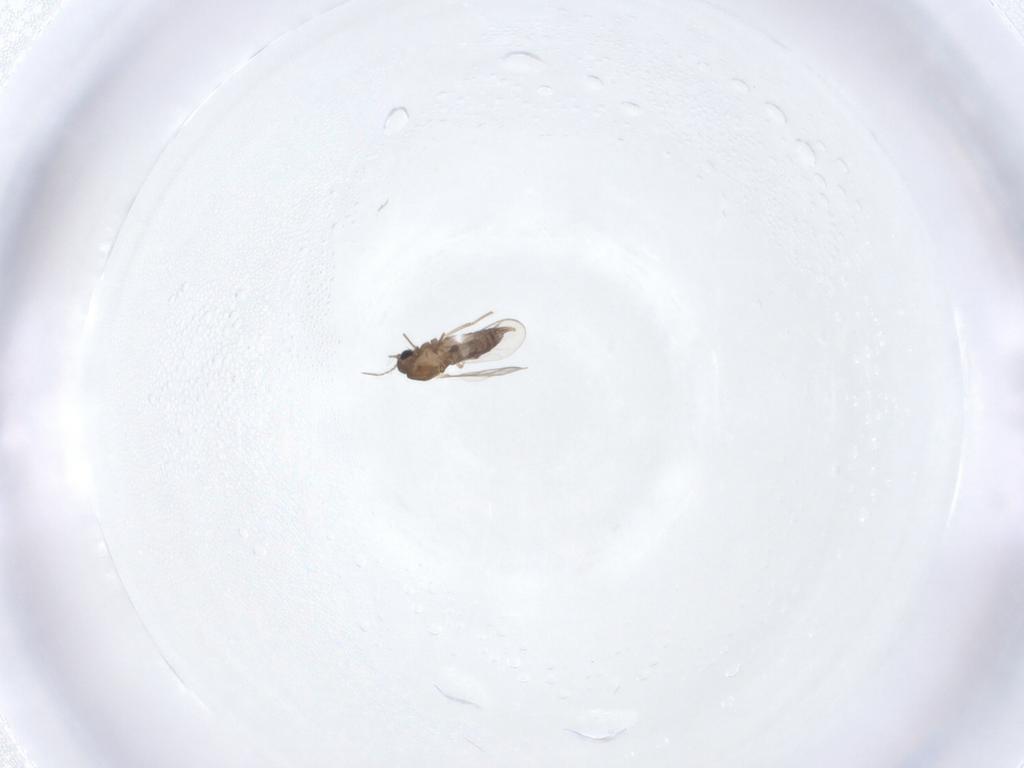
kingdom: Animalia
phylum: Arthropoda
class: Insecta
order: Diptera
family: Chironomidae
